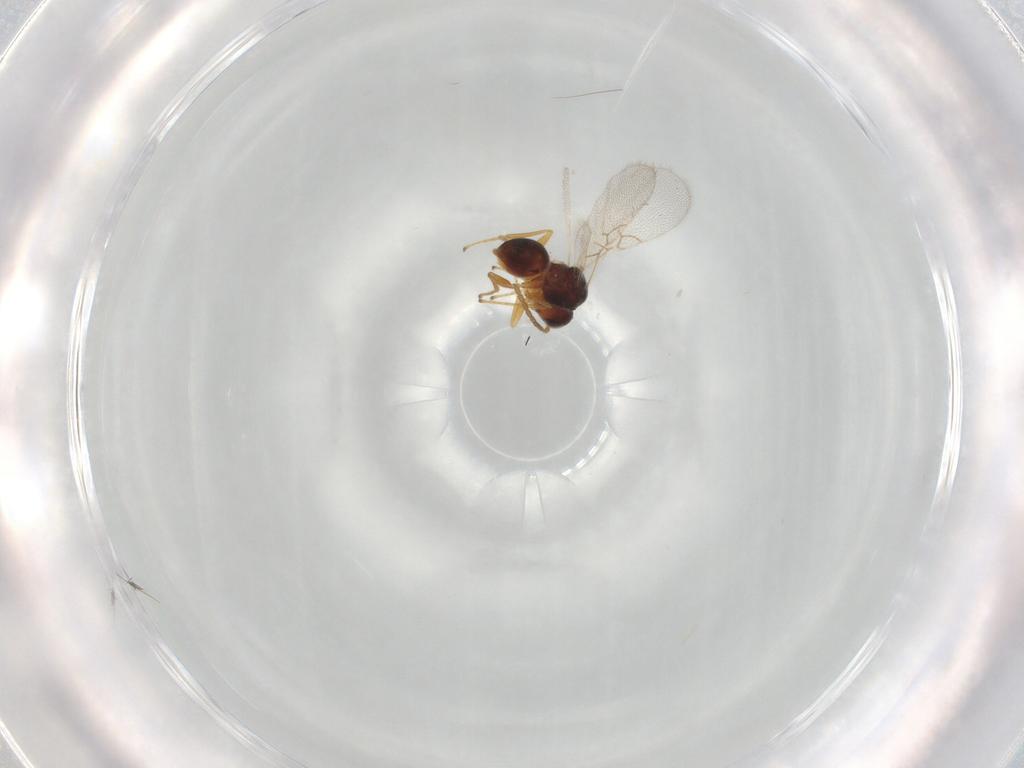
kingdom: Animalia
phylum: Arthropoda
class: Insecta
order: Hymenoptera
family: Figitidae
